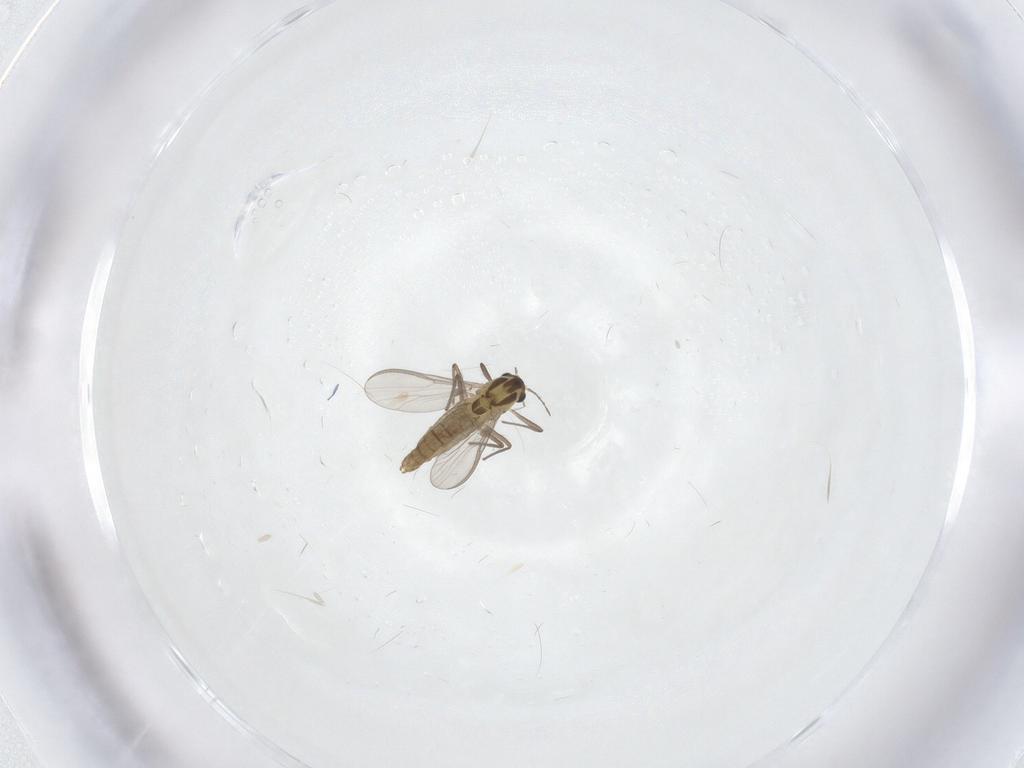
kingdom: Animalia
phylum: Arthropoda
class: Insecta
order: Diptera
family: Chironomidae
